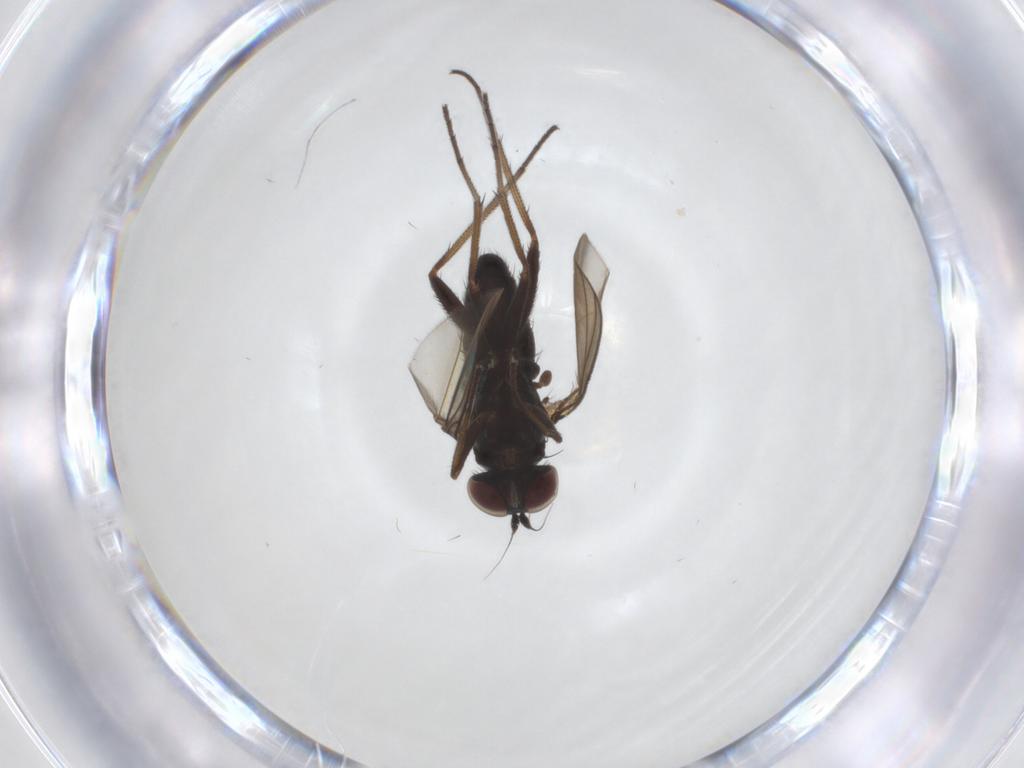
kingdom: Animalia
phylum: Arthropoda
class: Insecta
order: Diptera
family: Dolichopodidae
